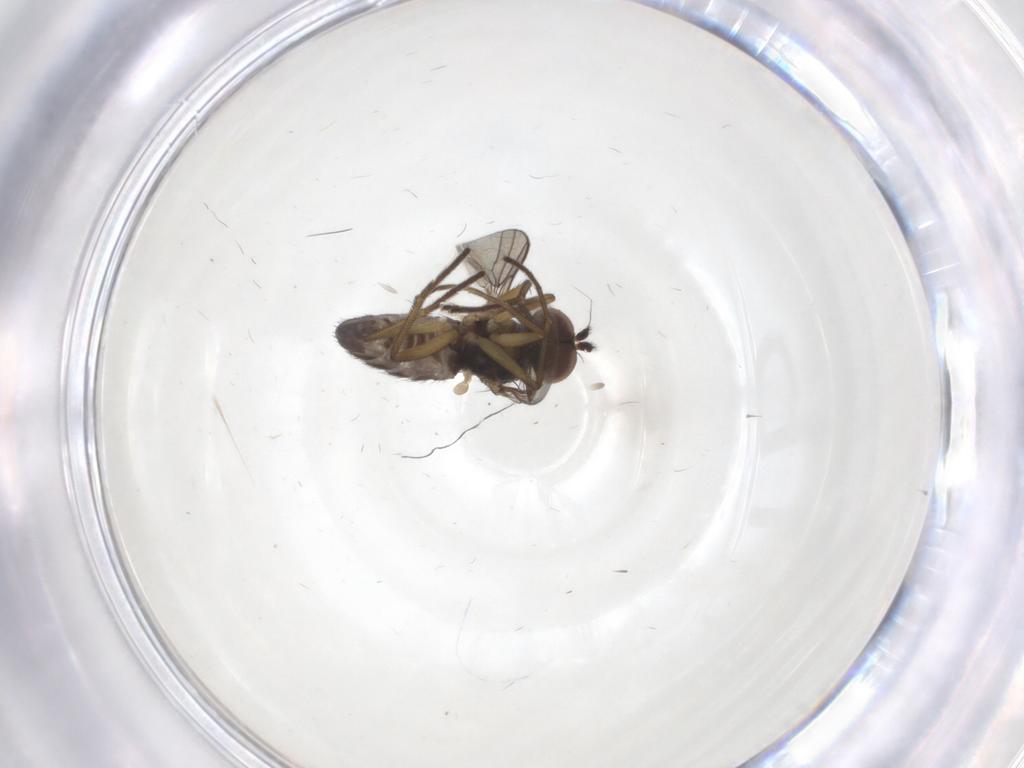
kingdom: Animalia
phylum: Arthropoda
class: Insecta
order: Diptera
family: Dolichopodidae
